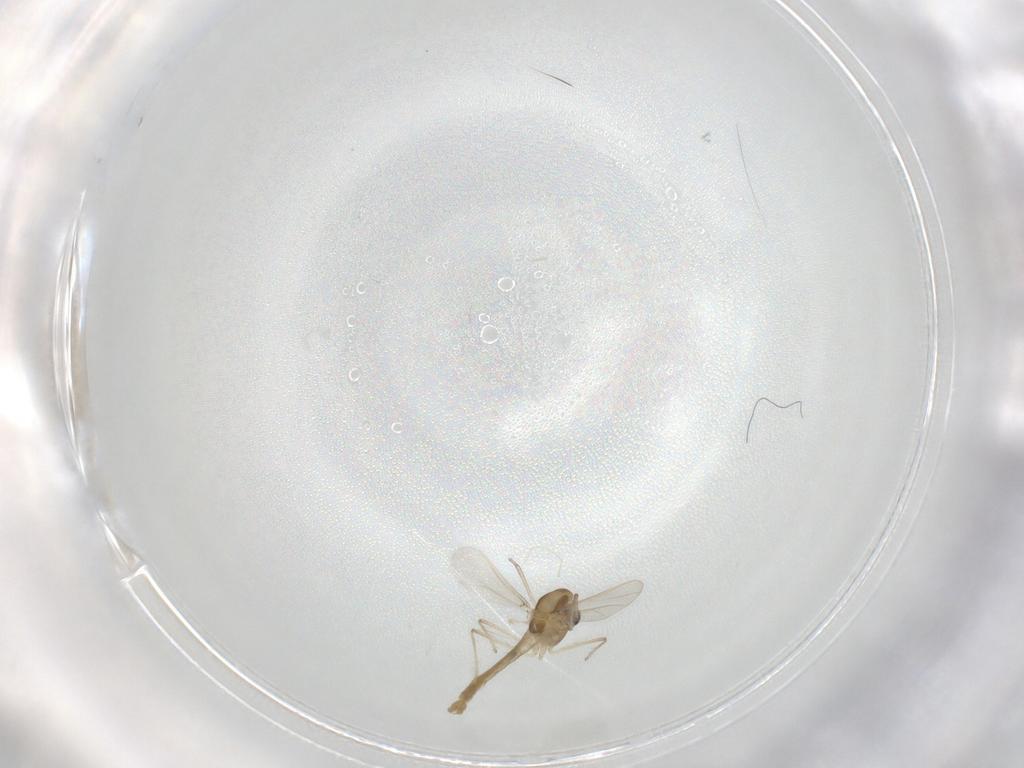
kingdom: Animalia
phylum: Arthropoda
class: Insecta
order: Diptera
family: Chironomidae
